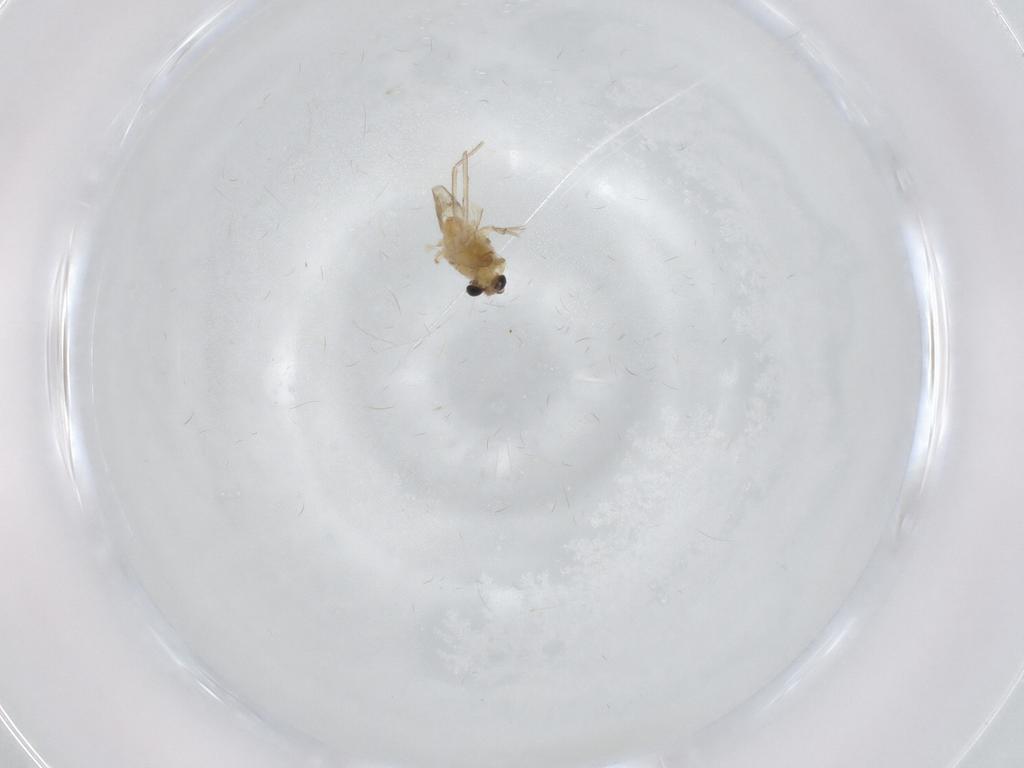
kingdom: Animalia
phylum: Arthropoda
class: Insecta
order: Diptera
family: Chironomidae
